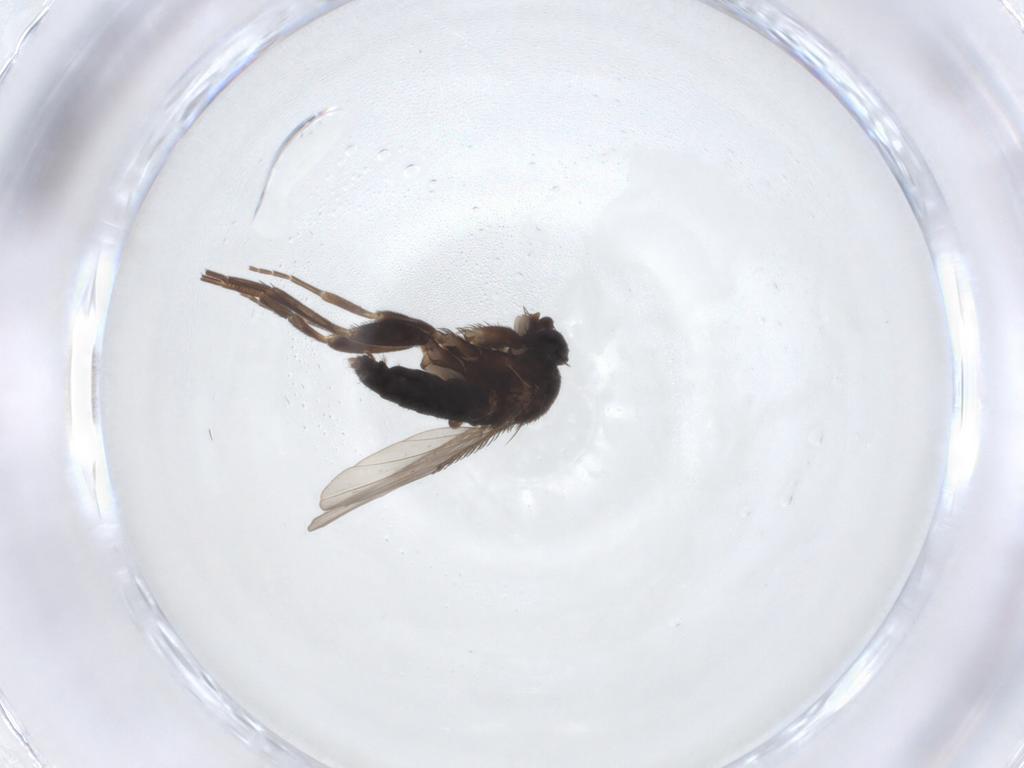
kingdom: Animalia
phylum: Arthropoda
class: Insecta
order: Diptera
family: Phoridae
